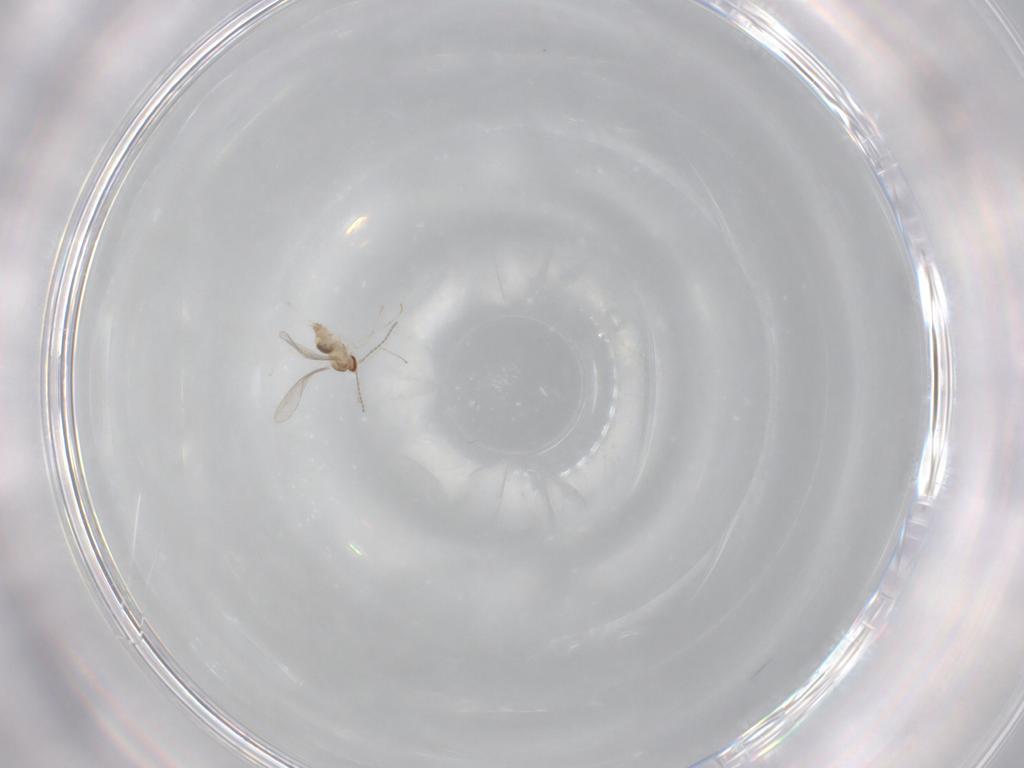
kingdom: Animalia
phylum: Arthropoda
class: Insecta
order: Diptera
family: Cecidomyiidae
